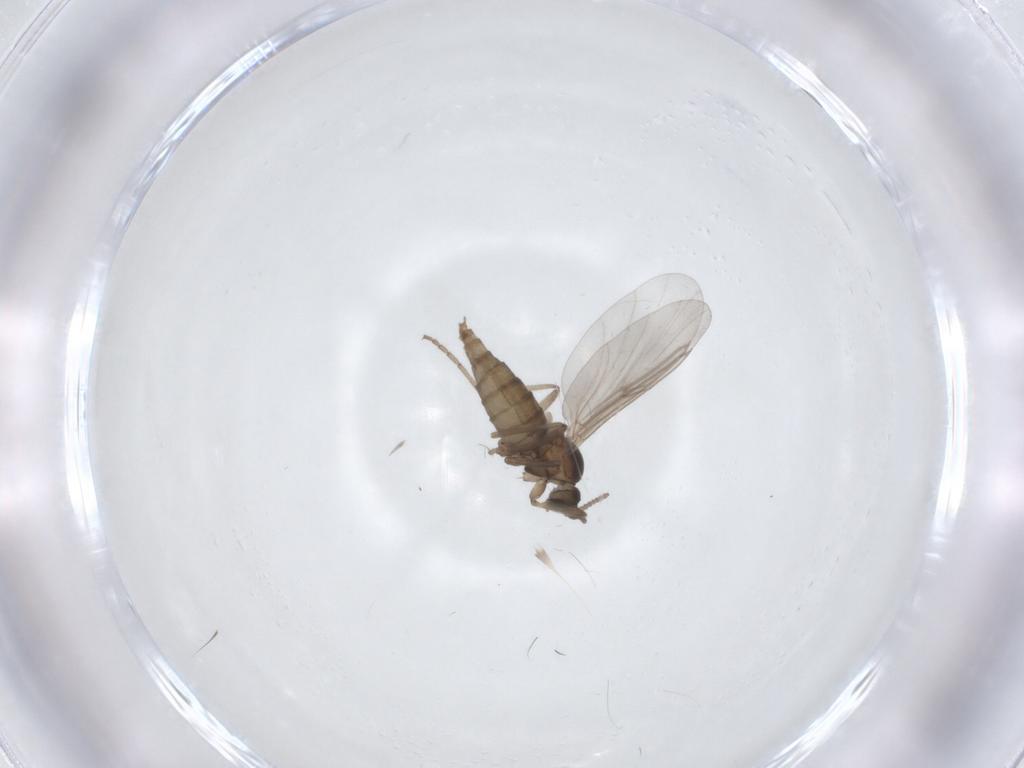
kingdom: Animalia
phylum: Arthropoda
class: Insecta
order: Diptera
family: Cecidomyiidae
